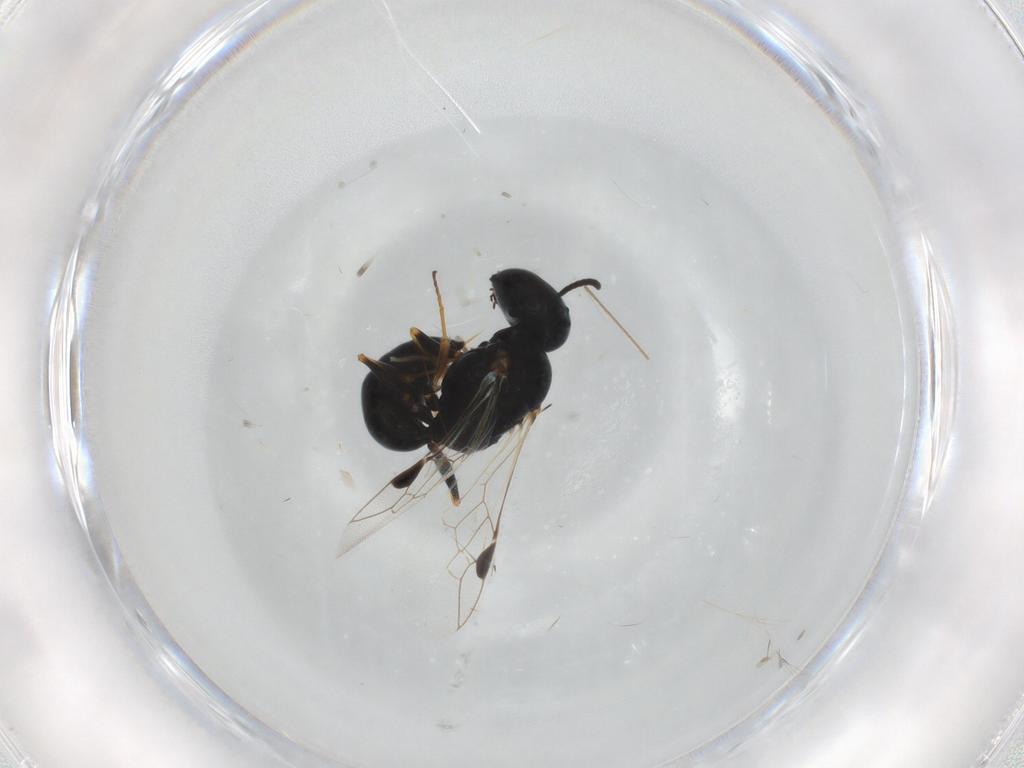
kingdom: Animalia
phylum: Arthropoda
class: Insecta
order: Hymenoptera
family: Crabronidae
